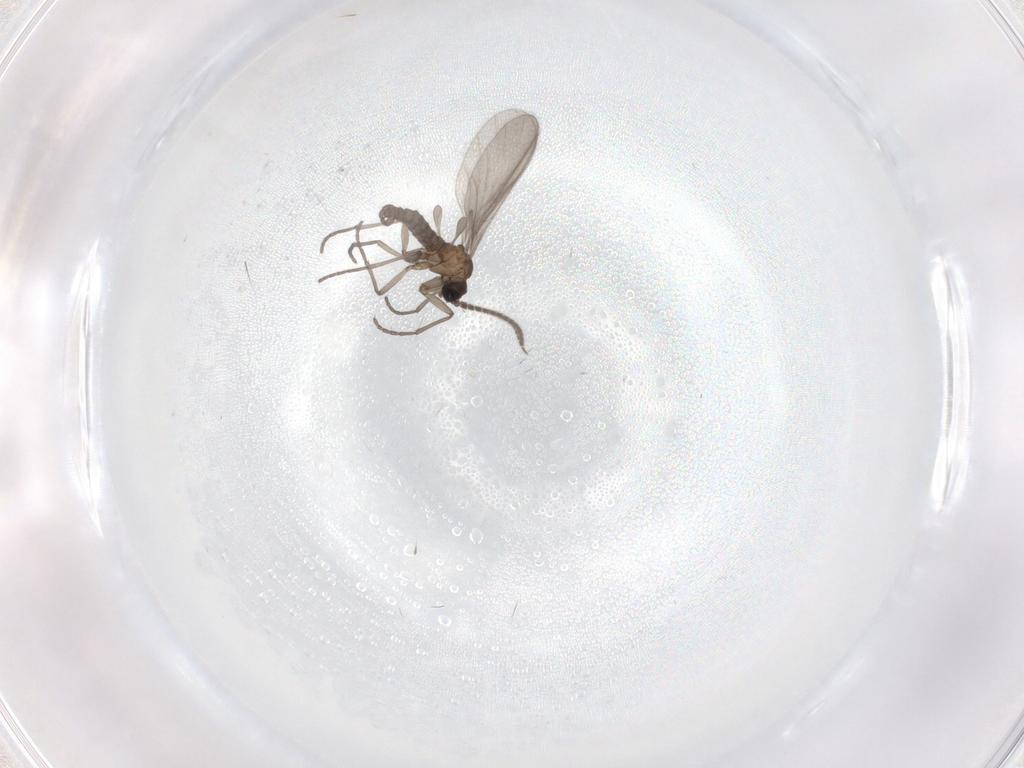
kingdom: Animalia
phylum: Arthropoda
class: Insecta
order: Diptera
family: Sciaridae
